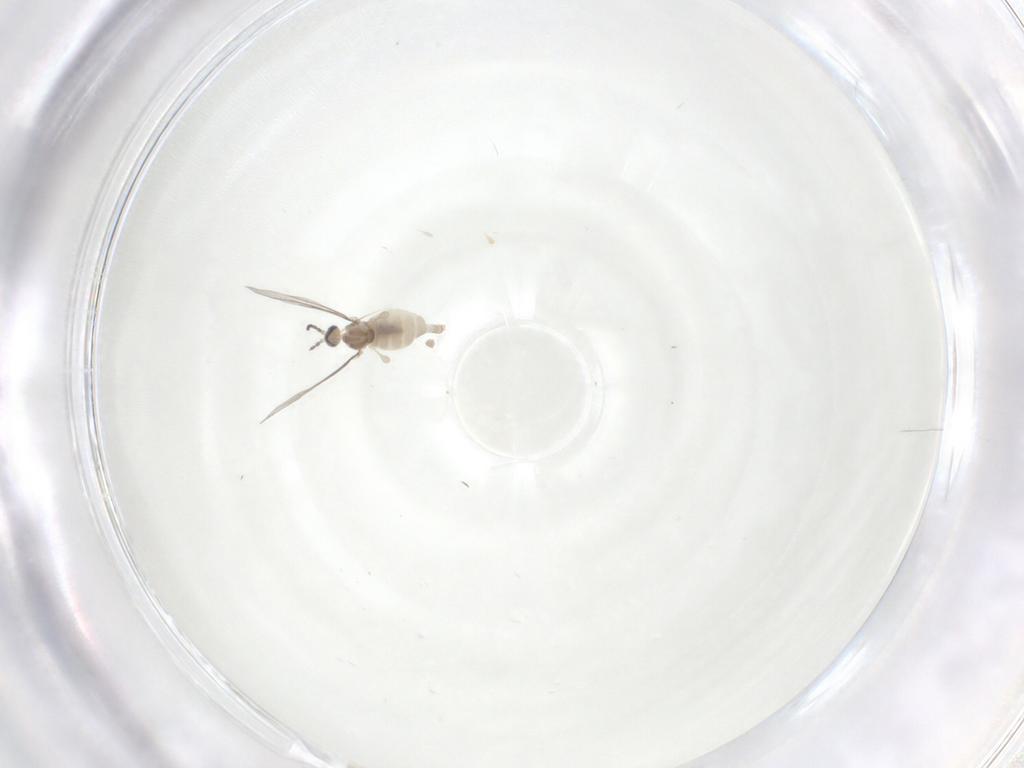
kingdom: Animalia
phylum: Arthropoda
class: Insecta
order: Diptera
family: Cecidomyiidae
